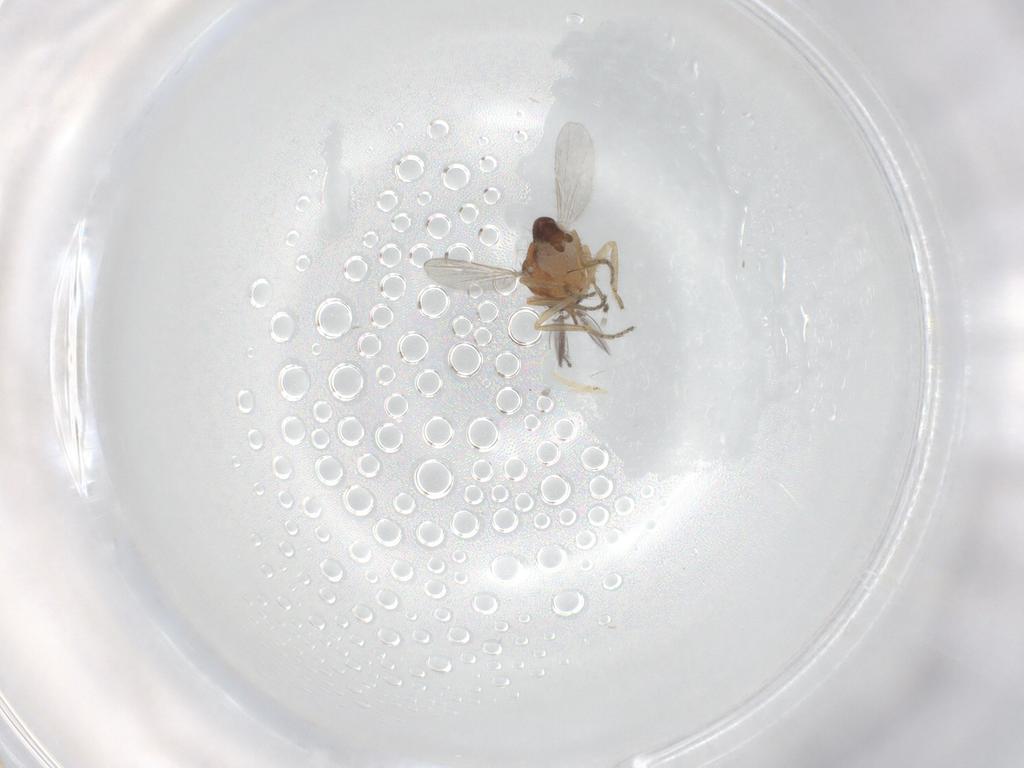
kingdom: Animalia
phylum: Arthropoda
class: Insecta
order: Diptera
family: Ceratopogonidae
